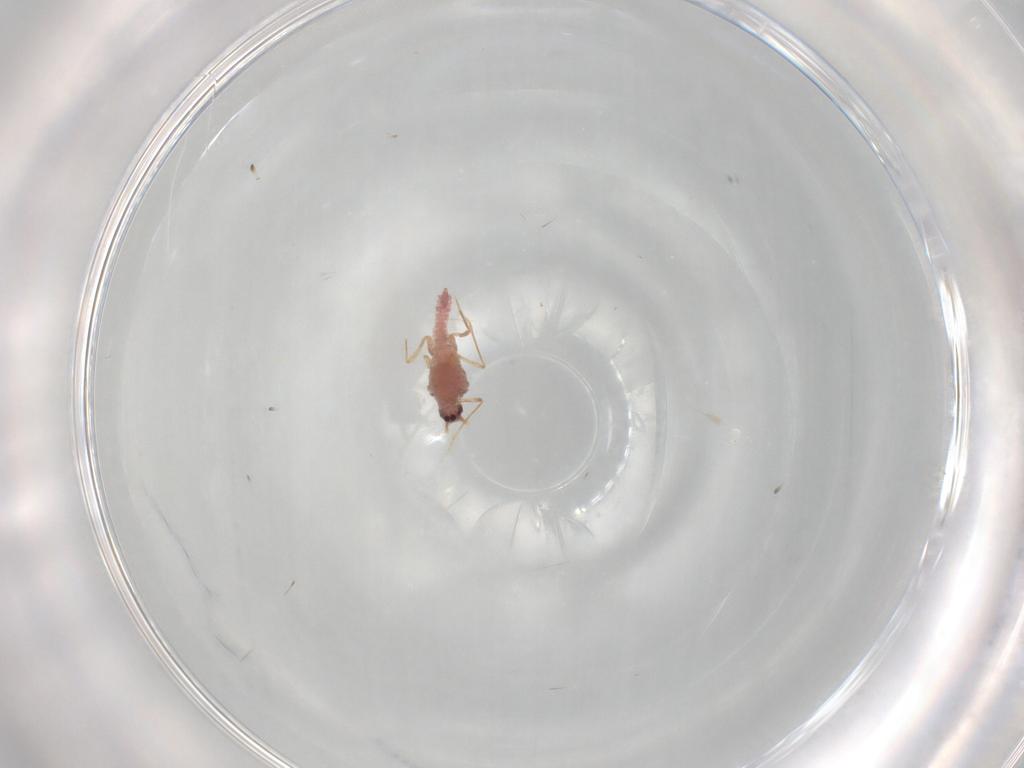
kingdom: Animalia
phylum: Arthropoda
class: Insecta
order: Hemiptera
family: Coccoidea_incertae_sedis
